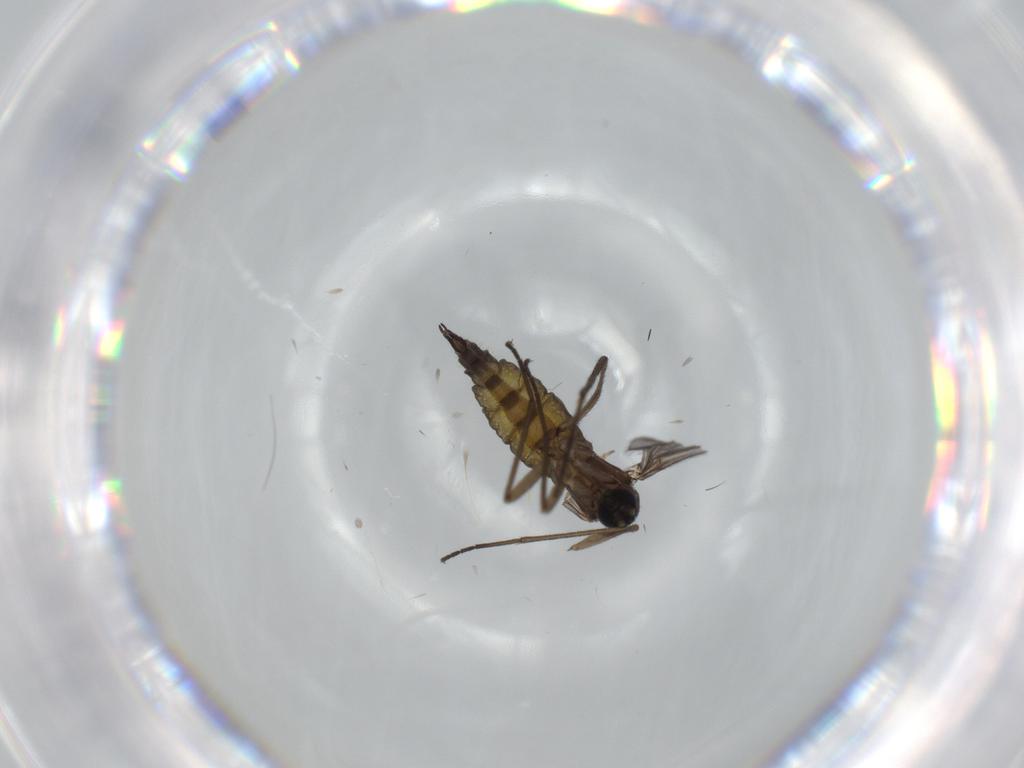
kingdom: Animalia
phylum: Arthropoda
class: Insecta
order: Diptera
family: Sciaridae
